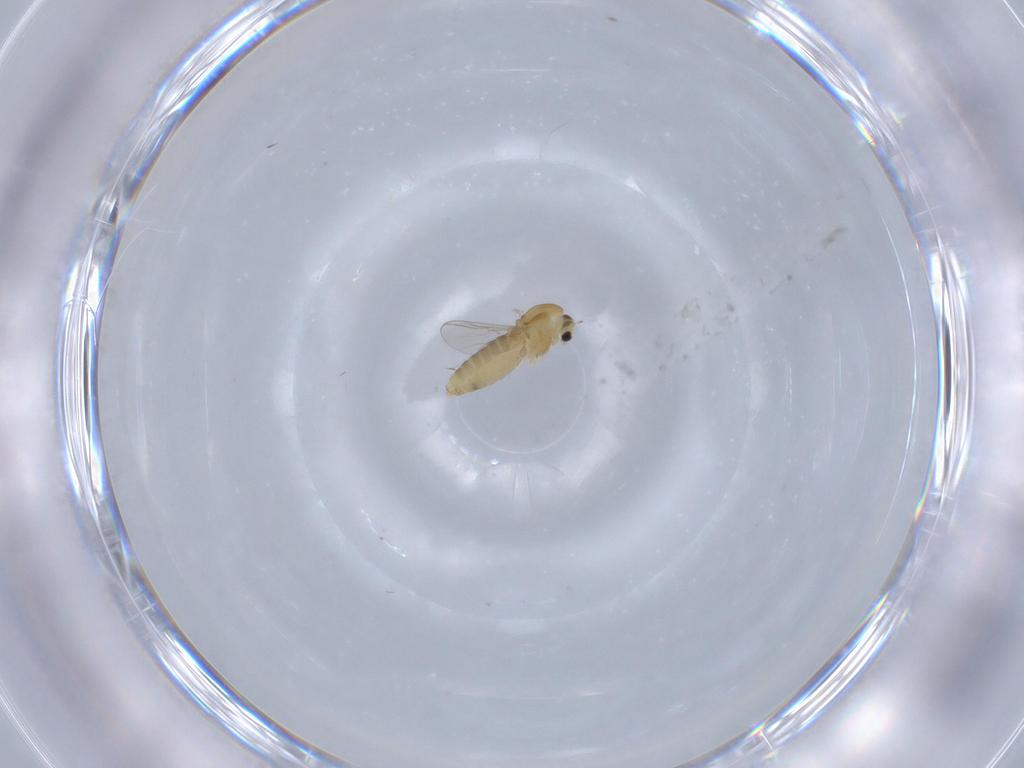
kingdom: Animalia
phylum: Arthropoda
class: Insecta
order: Diptera
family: Chironomidae
